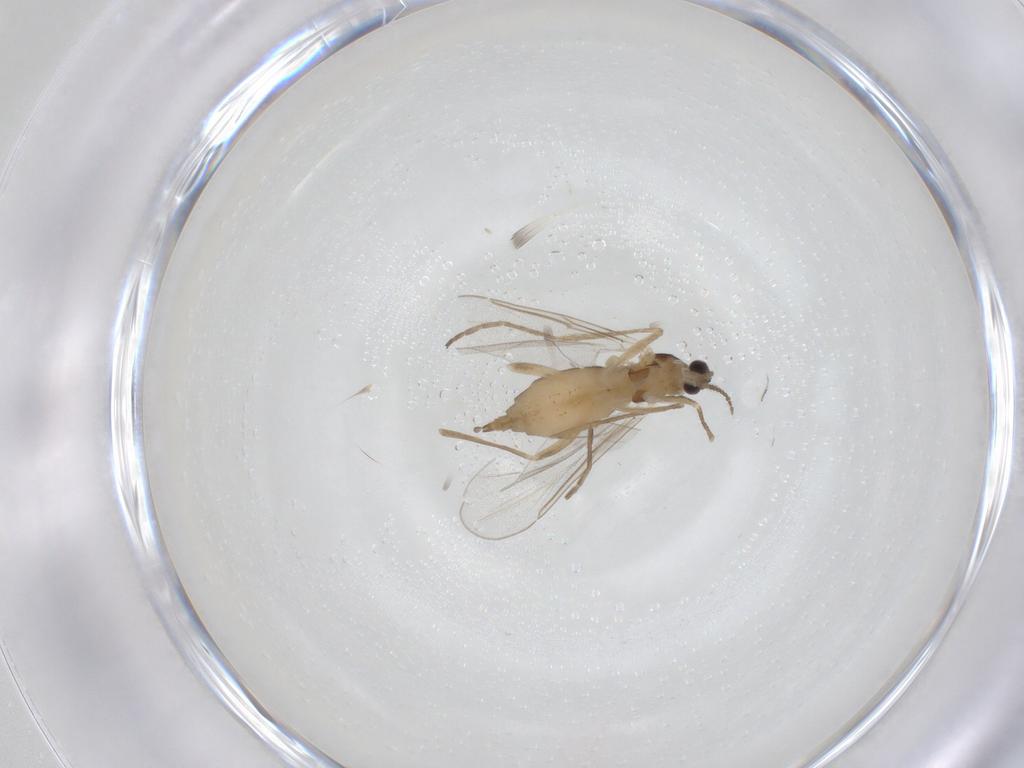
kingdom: Animalia
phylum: Arthropoda
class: Insecta
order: Diptera
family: Cecidomyiidae
